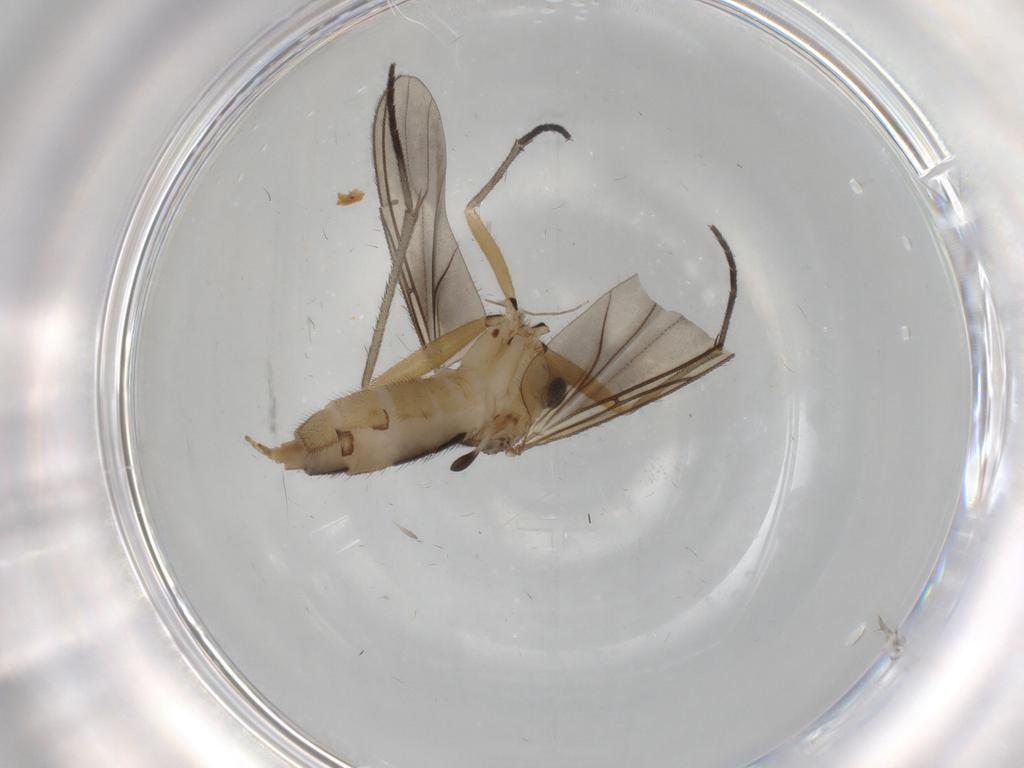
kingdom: Animalia
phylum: Arthropoda
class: Insecta
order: Diptera
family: Sciaridae
